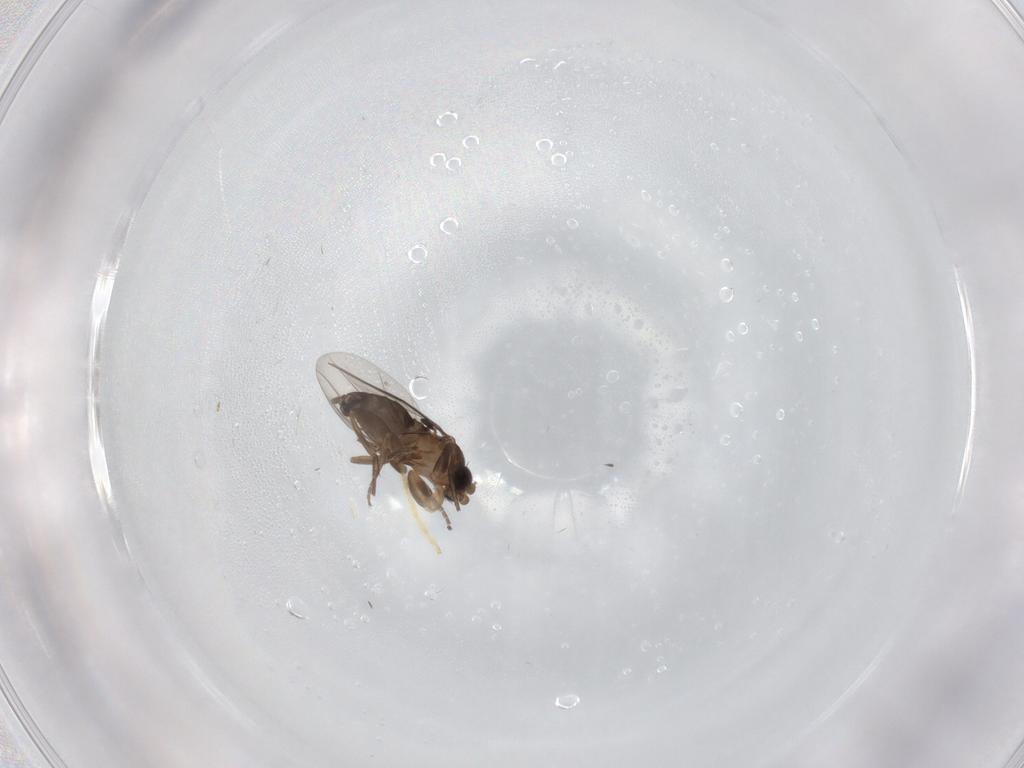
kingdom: Animalia
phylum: Arthropoda
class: Insecta
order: Diptera
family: Phoridae
